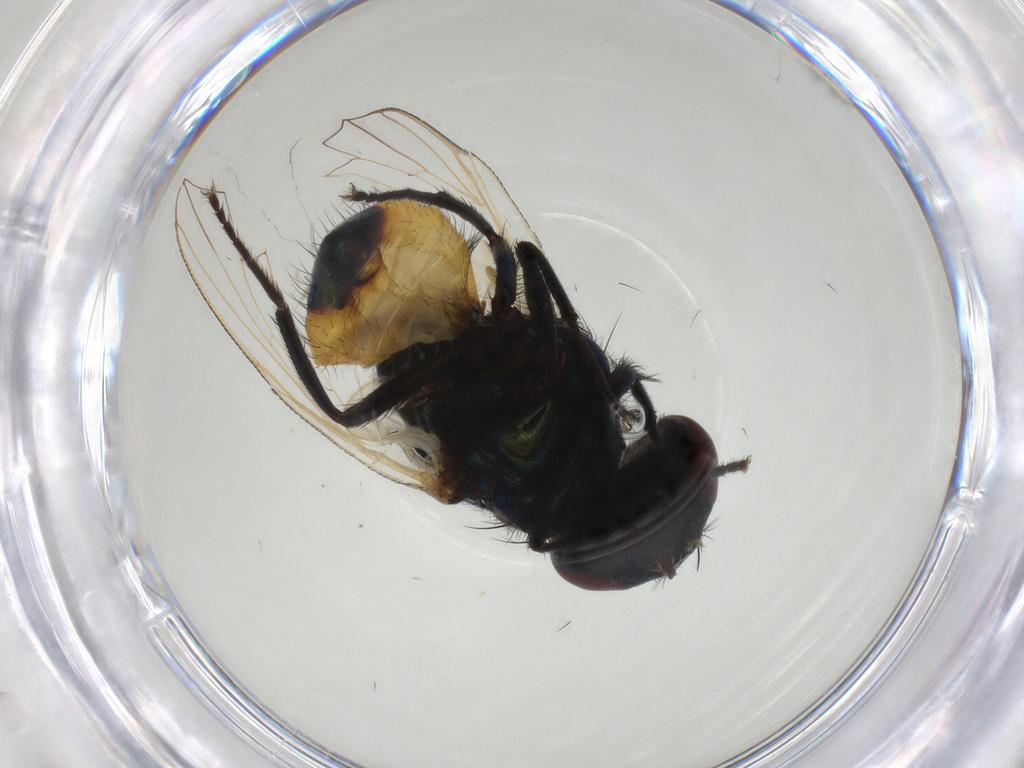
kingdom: Animalia
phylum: Arthropoda
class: Insecta
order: Diptera
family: Muscidae
